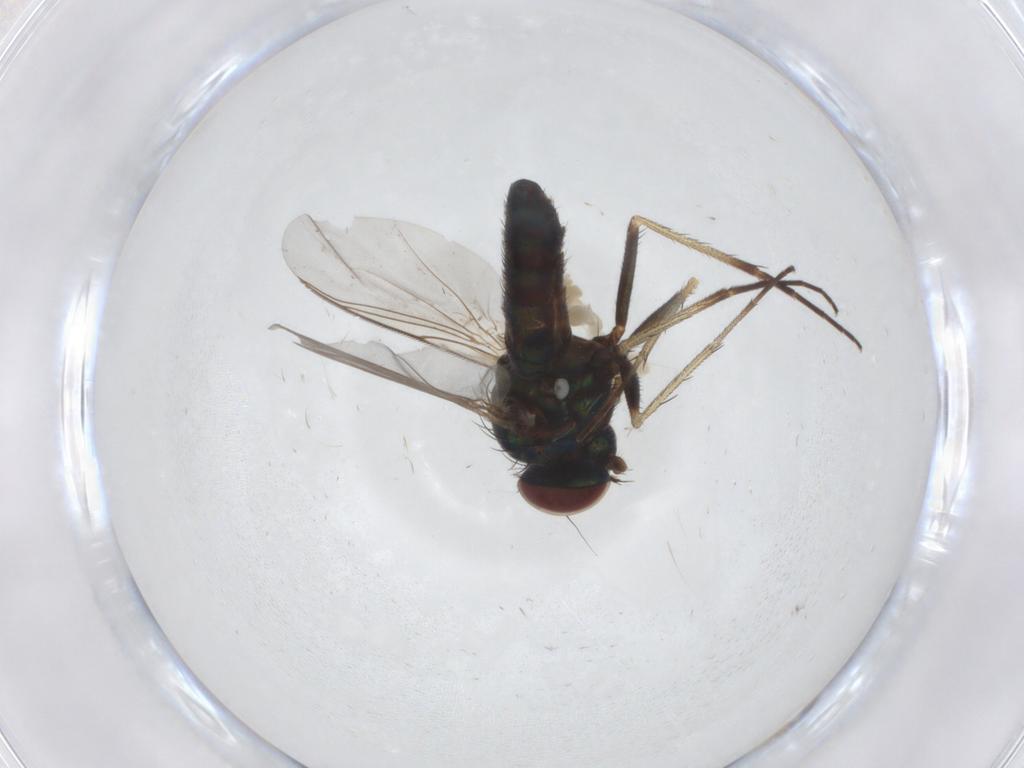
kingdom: Animalia
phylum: Arthropoda
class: Insecta
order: Diptera
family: Dolichopodidae
